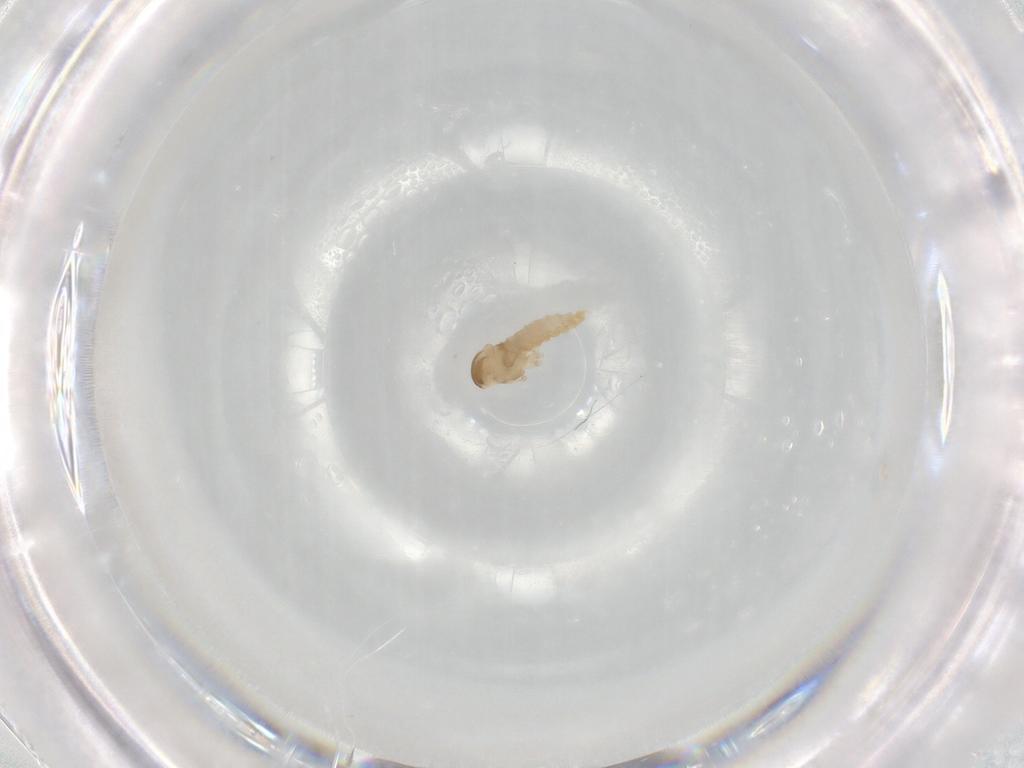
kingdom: Animalia
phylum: Arthropoda
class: Insecta
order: Diptera
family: Cecidomyiidae
